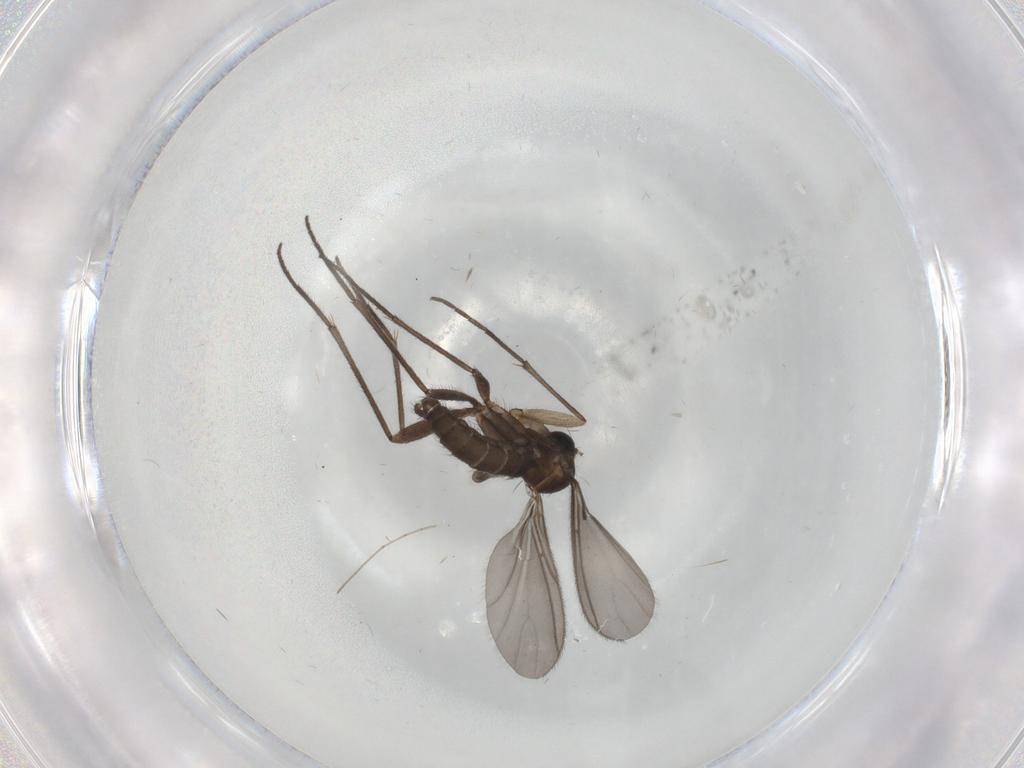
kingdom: Animalia
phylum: Arthropoda
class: Insecta
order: Diptera
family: Sciaridae
